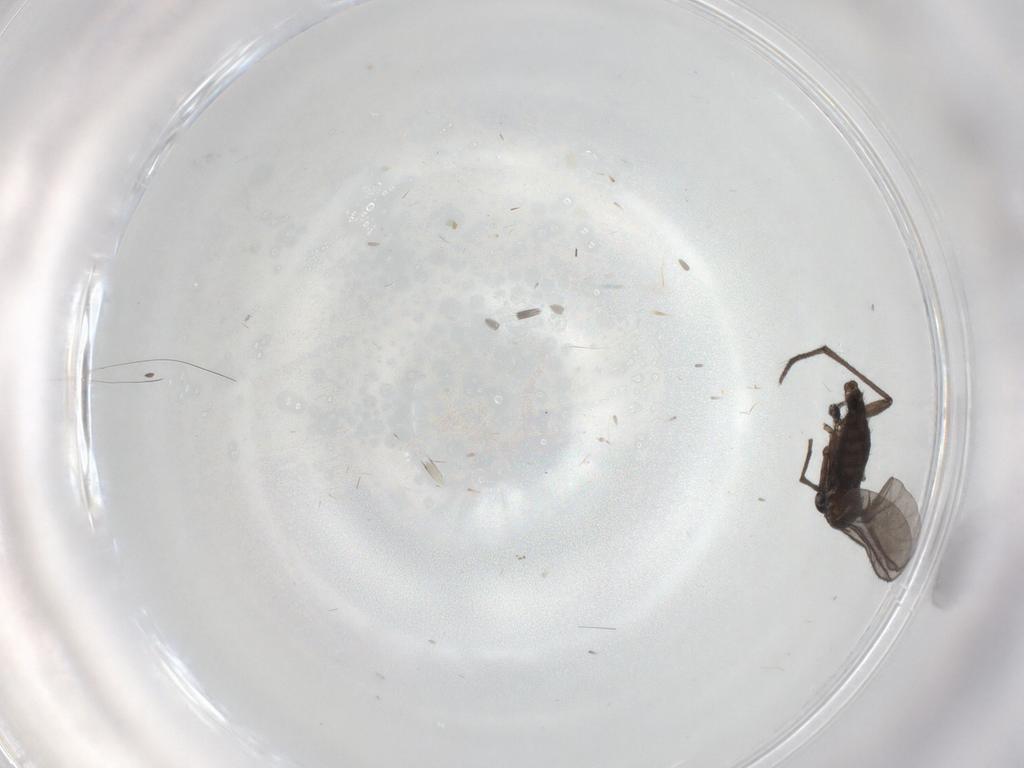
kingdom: Animalia
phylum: Arthropoda
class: Insecta
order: Diptera
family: Sciaridae
